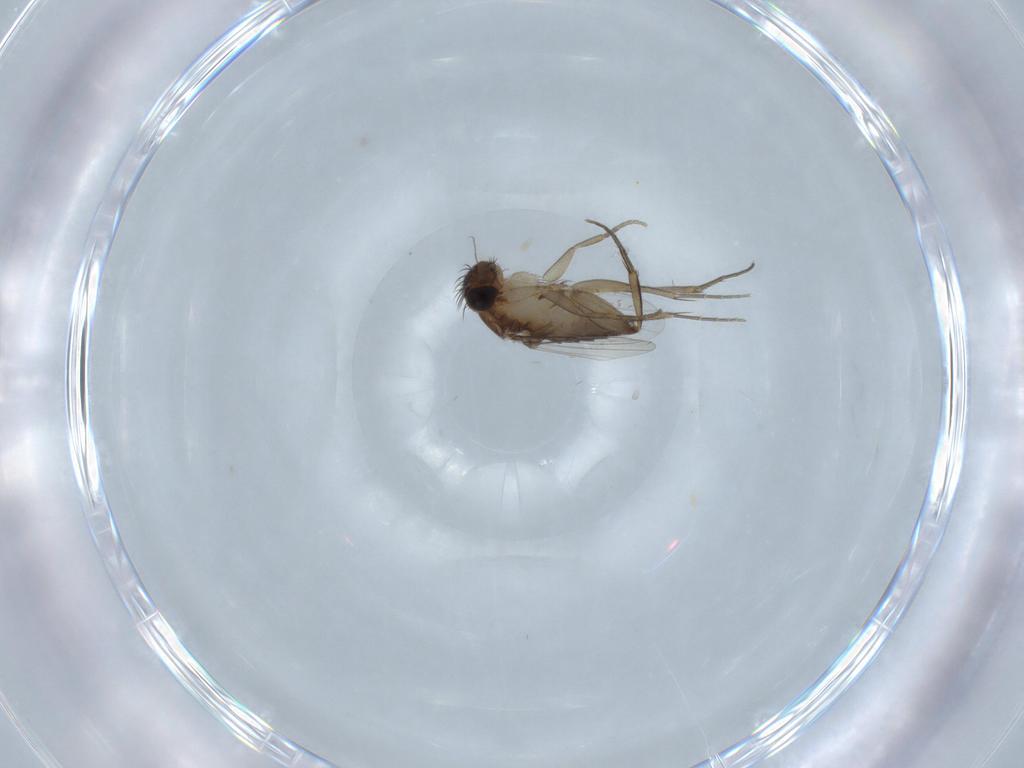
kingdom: Animalia
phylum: Arthropoda
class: Insecta
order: Diptera
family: Phoridae
